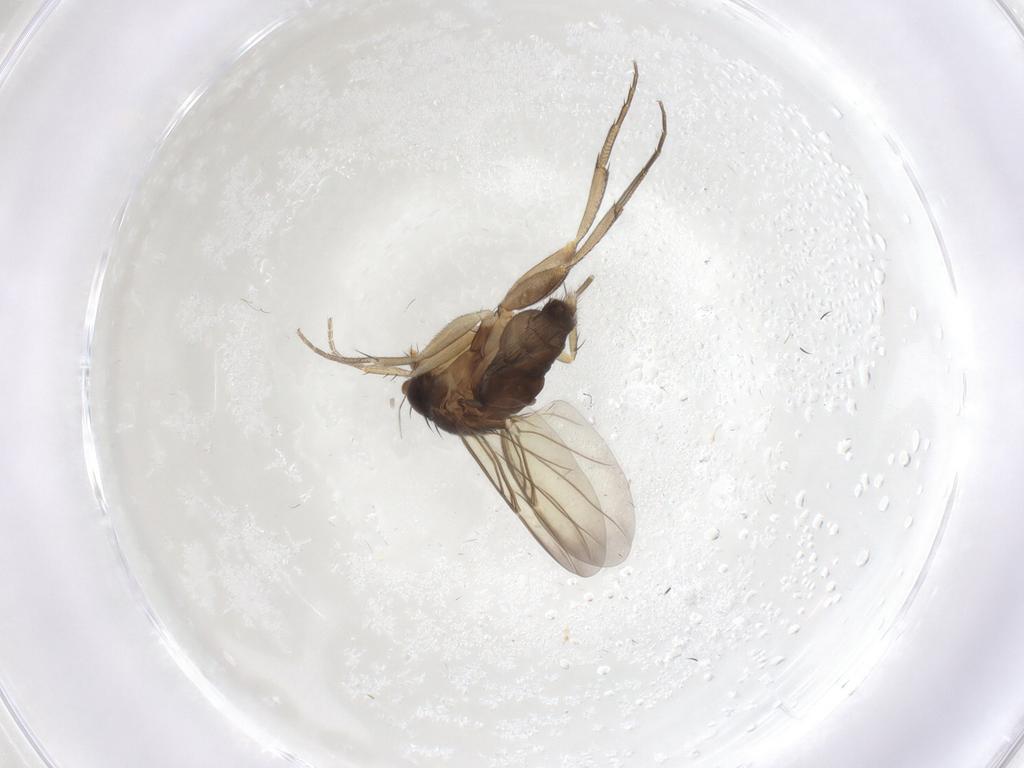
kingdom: Animalia
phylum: Arthropoda
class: Insecta
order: Diptera
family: Phoridae
